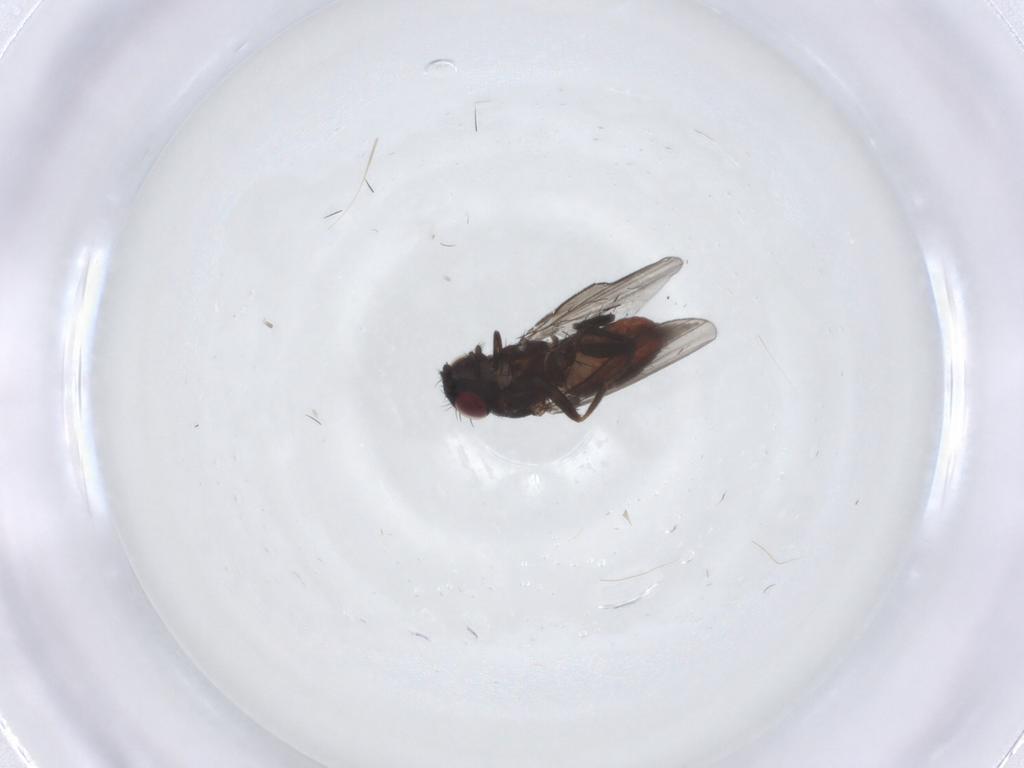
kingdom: Animalia
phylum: Arthropoda
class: Insecta
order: Diptera
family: Milichiidae
